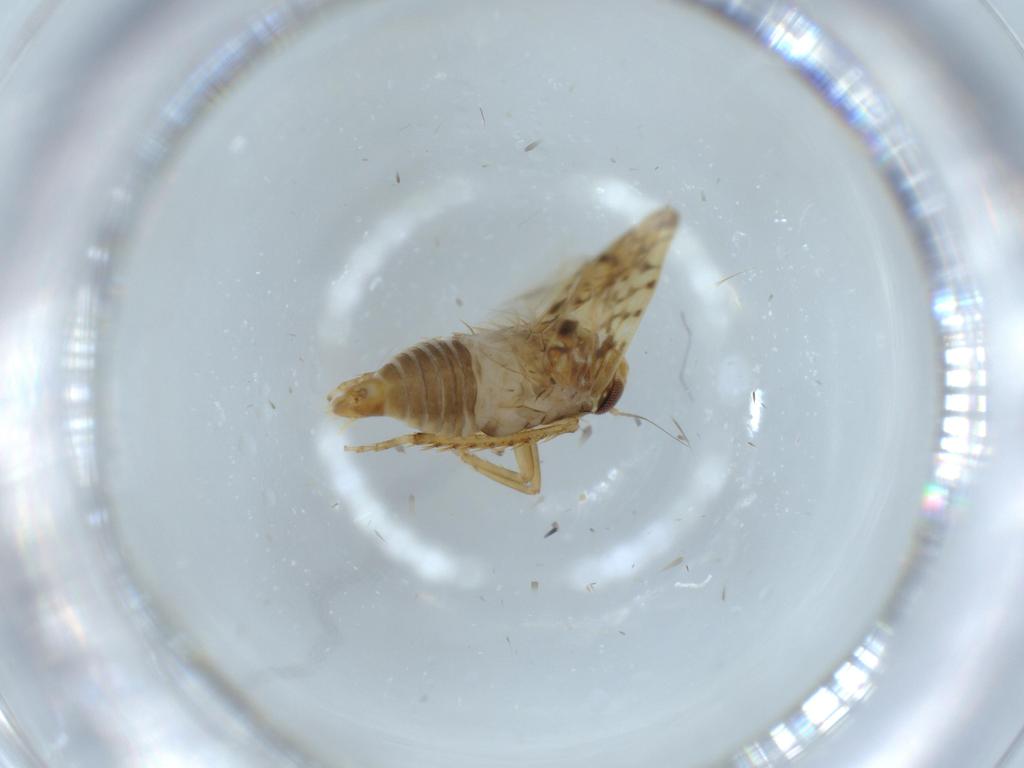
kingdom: Animalia
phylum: Arthropoda
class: Insecta
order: Hemiptera
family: Cicadellidae
